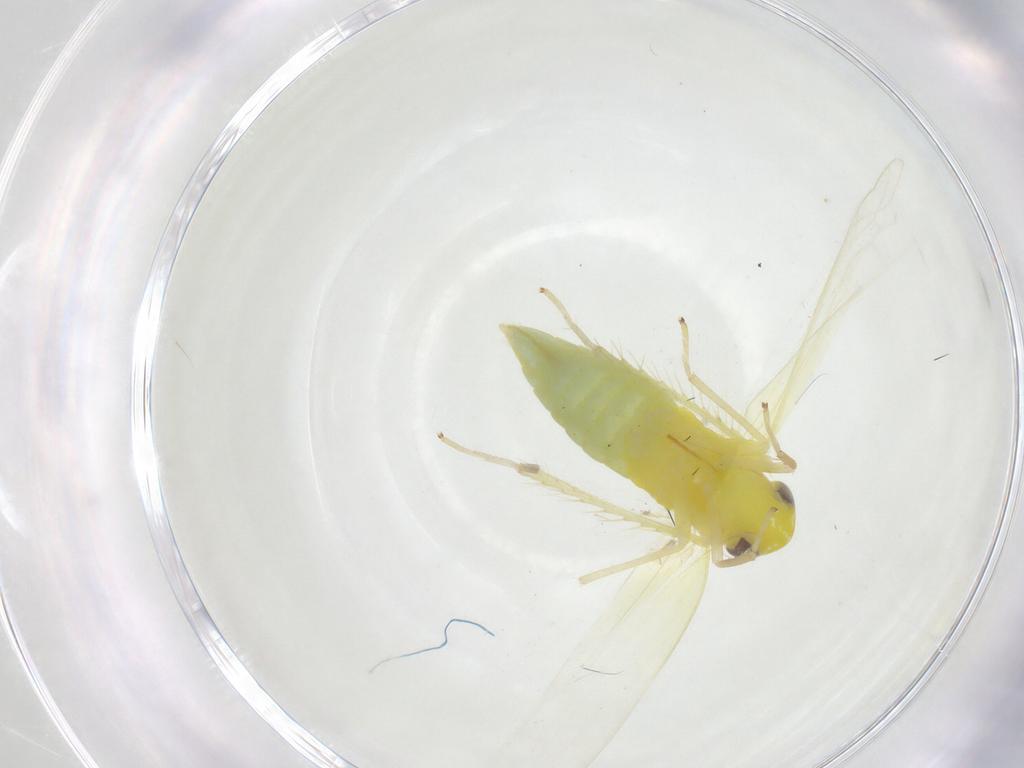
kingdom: Animalia
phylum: Arthropoda
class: Insecta
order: Hemiptera
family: Cicadellidae
